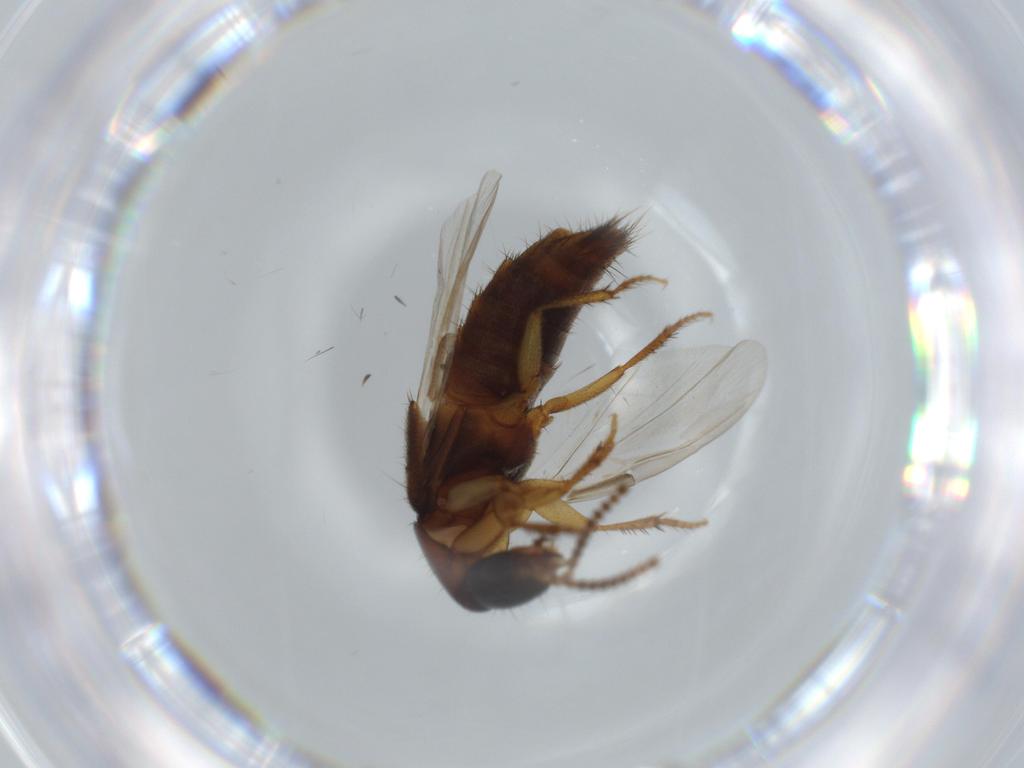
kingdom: Animalia
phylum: Arthropoda
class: Insecta
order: Coleoptera
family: Staphylinidae
